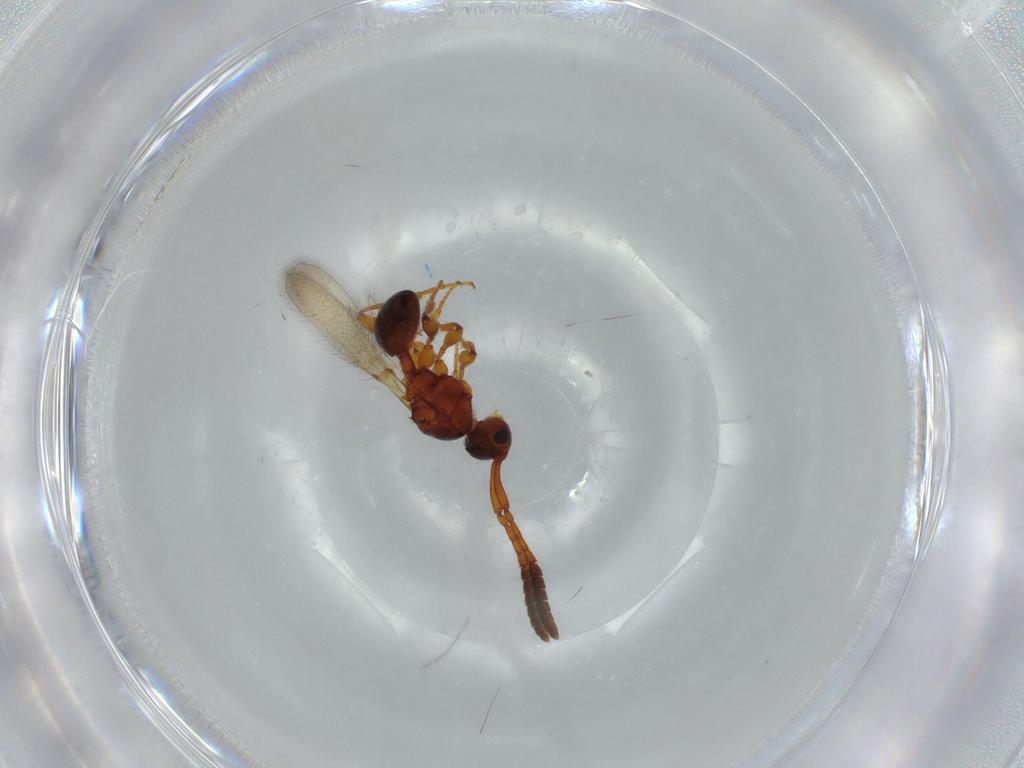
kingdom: Animalia
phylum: Arthropoda
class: Insecta
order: Hymenoptera
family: Diapriidae
